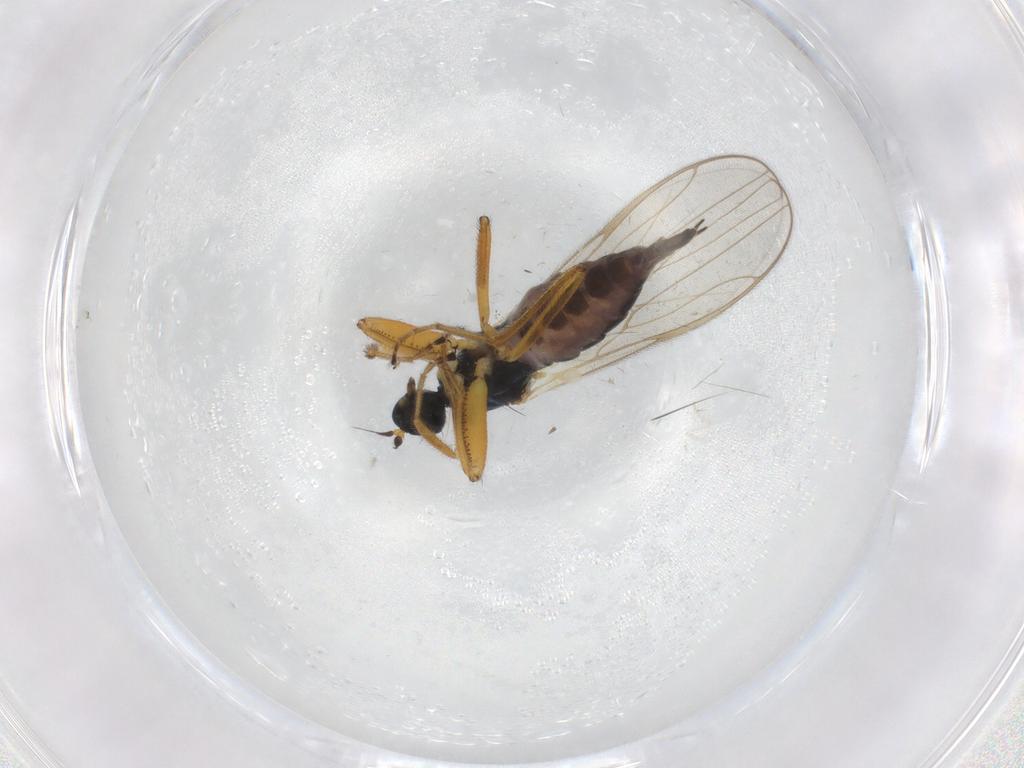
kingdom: Animalia
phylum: Arthropoda
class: Insecta
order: Diptera
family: Hybotidae
